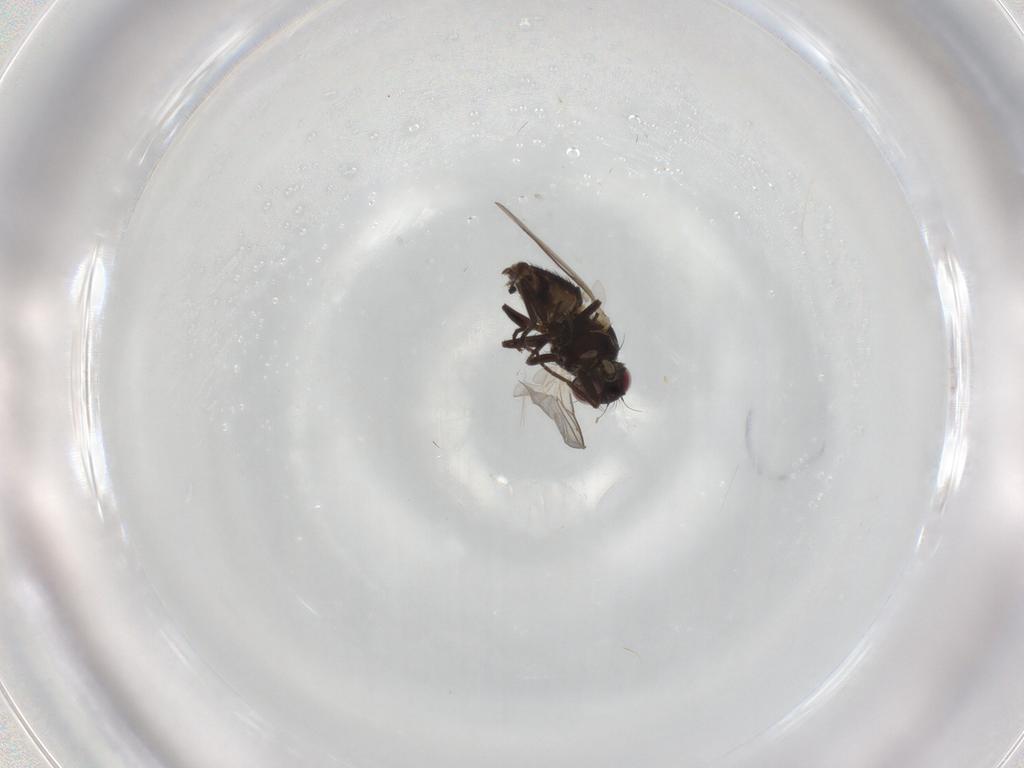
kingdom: Animalia
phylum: Arthropoda
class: Insecta
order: Diptera
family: Agromyzidae
